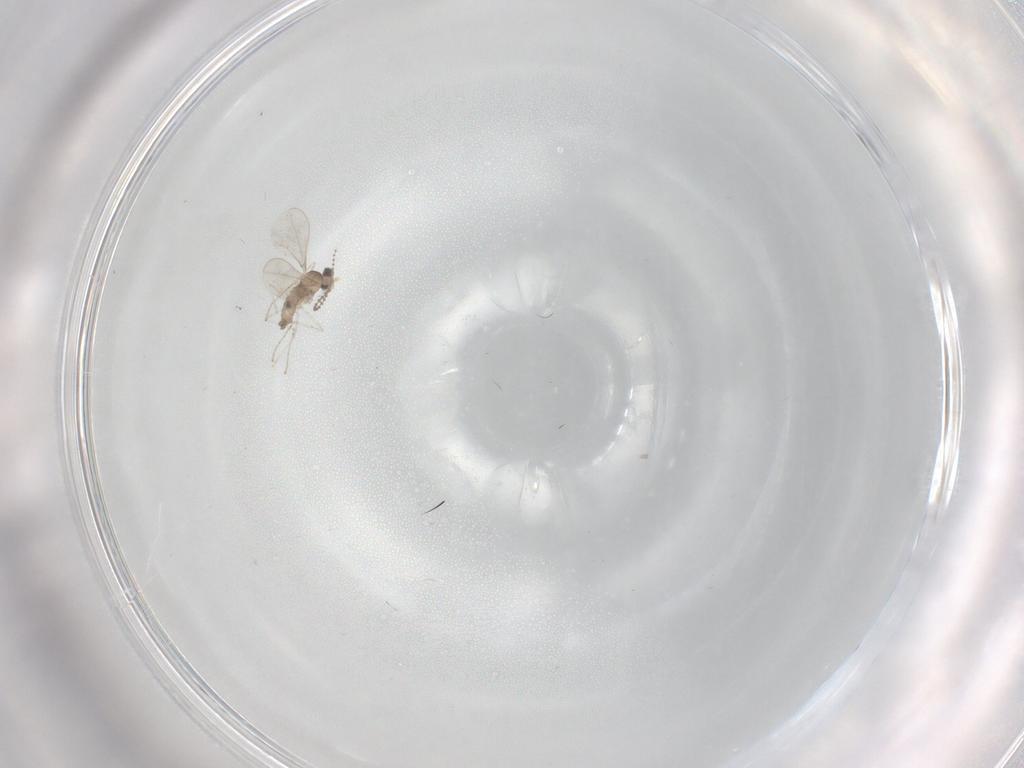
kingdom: Animalia
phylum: Arthropoda
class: Insecta
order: Diptera
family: Cecidomyiidae
